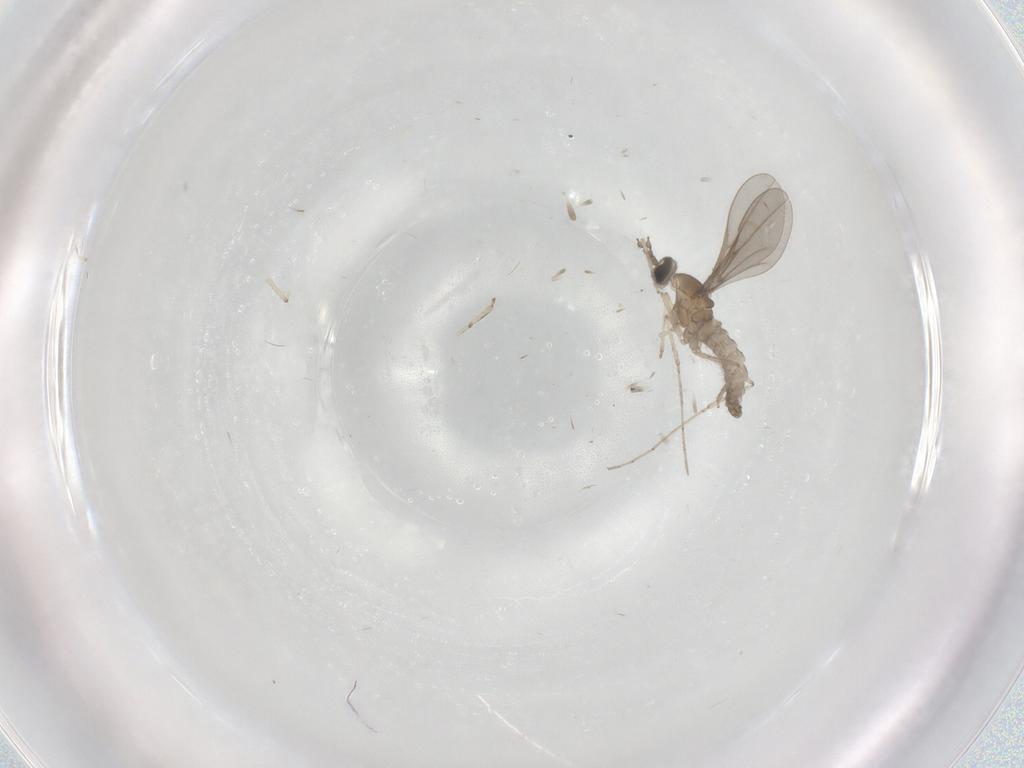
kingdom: Animalia
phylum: Arthropoda
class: Insecta
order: Diptera
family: Cecidomyiidae
